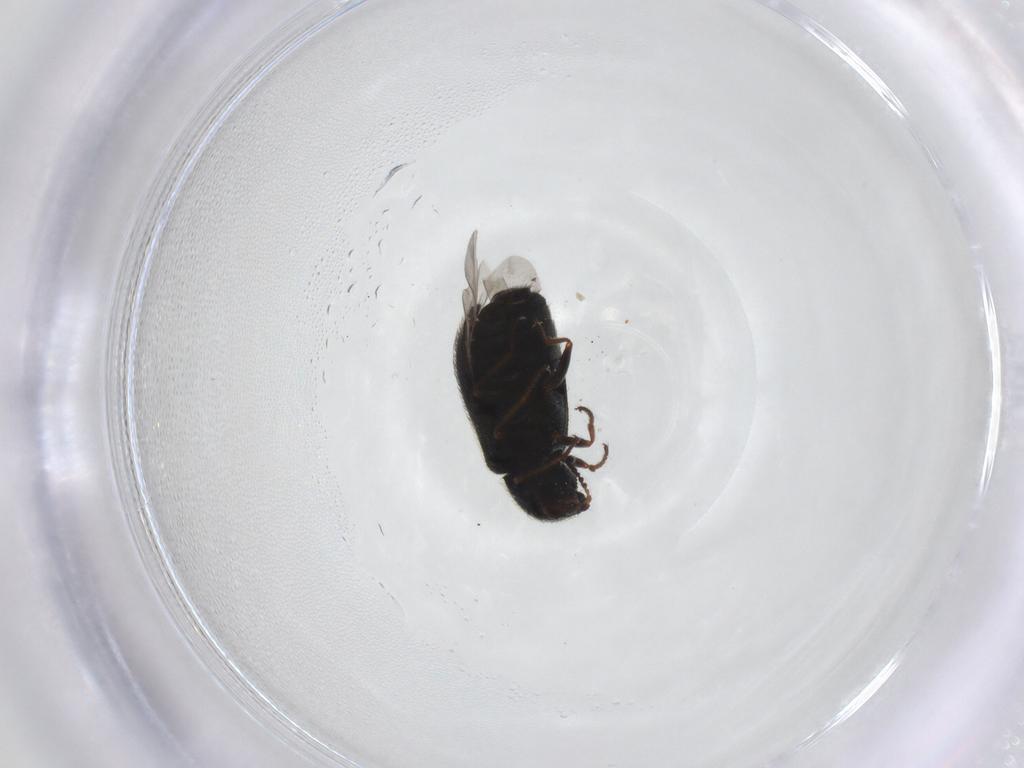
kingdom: Animalia
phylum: Arthropoda
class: Insecta
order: Coleoptera
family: Melyridae
